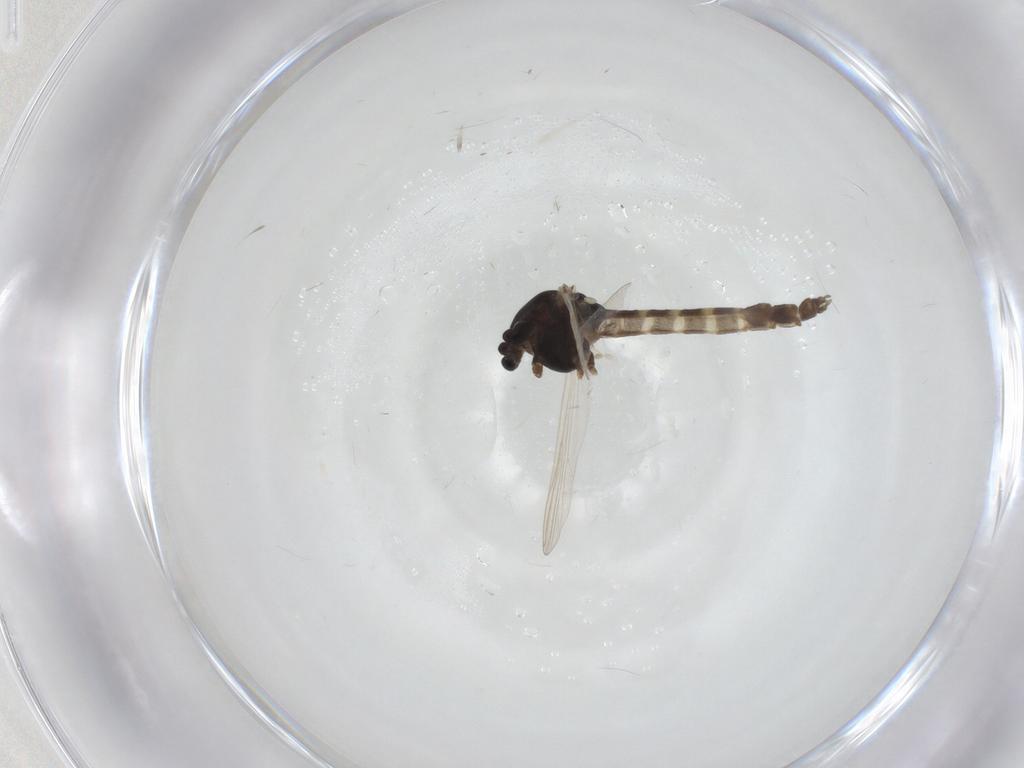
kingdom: Animalia
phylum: Arthropoda
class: Insecta
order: Diptera
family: Chironomidae
